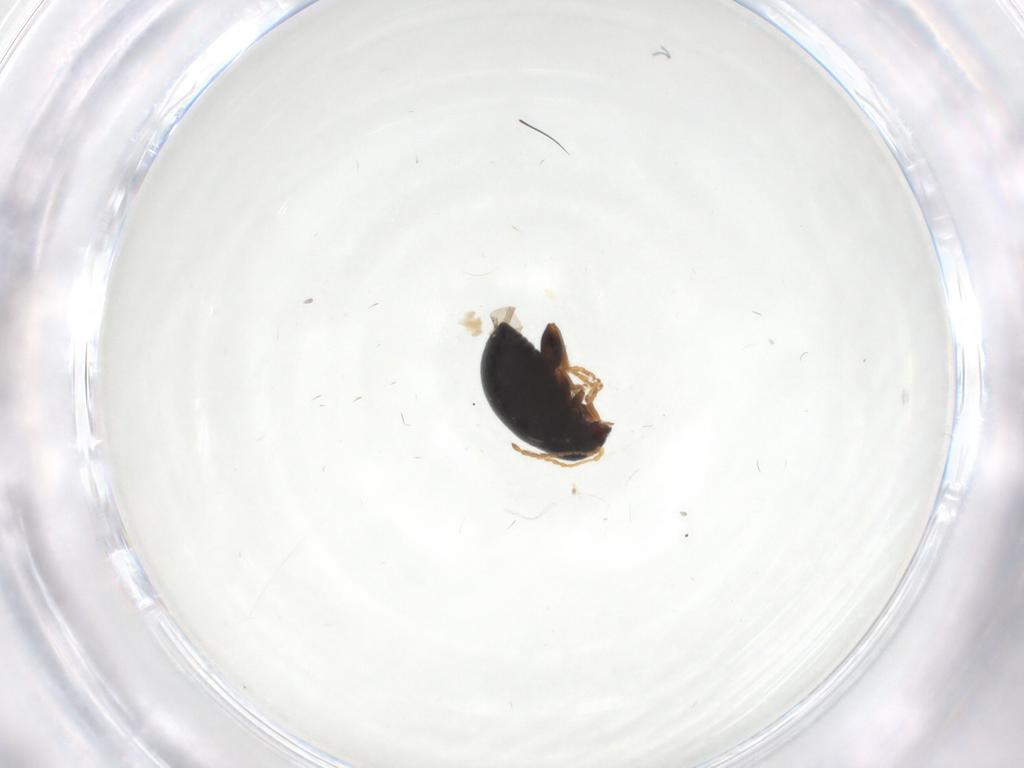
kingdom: Animalia
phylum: Arthropoda
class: Insecta
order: Coleoptera
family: Chrysomelidae
